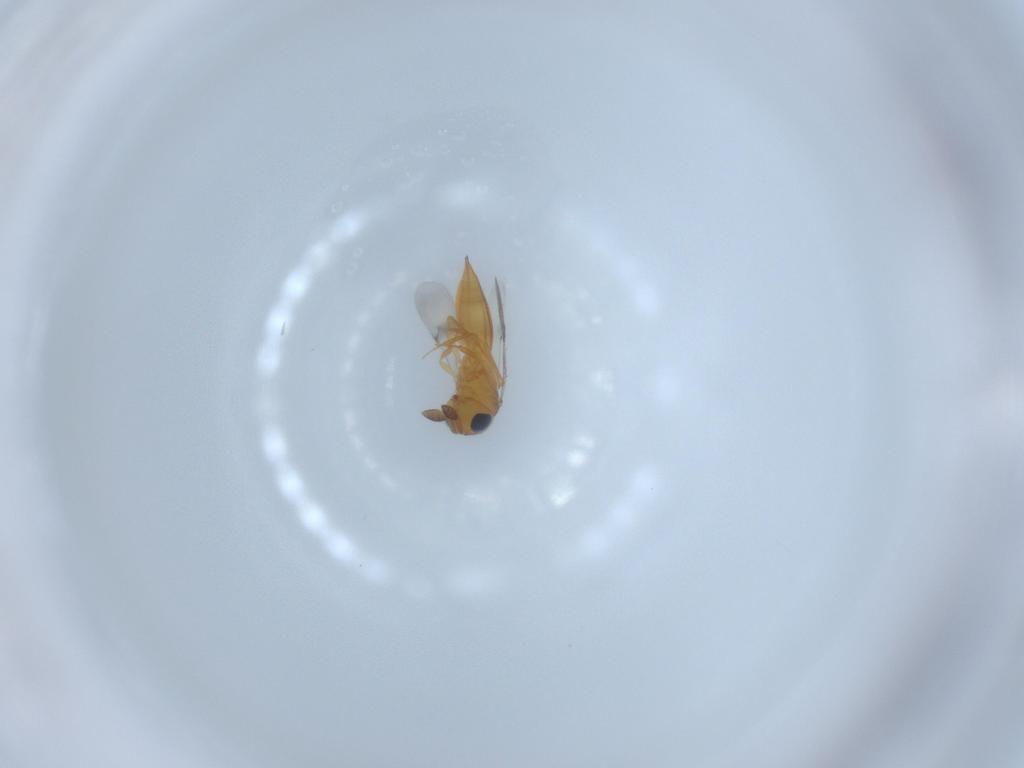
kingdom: Animalia
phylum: Arthropoda
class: Insecta
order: Hymenoptera
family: Scelionidae
